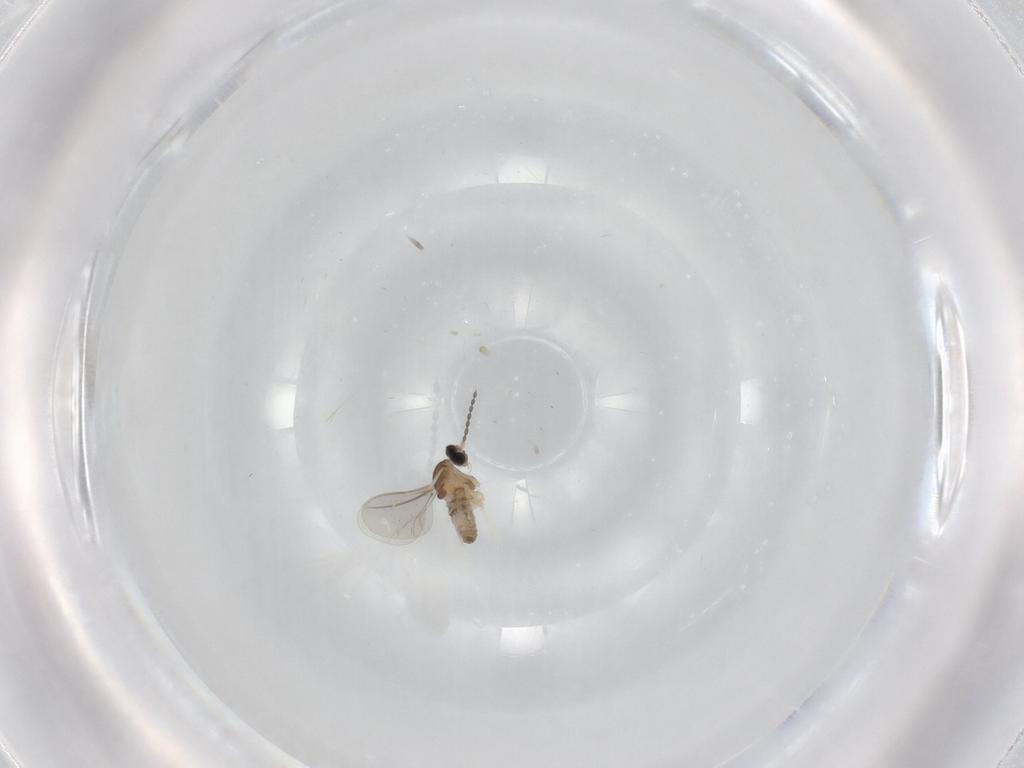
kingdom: Animalia
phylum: Arthropoda
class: Insecta
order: Diptera
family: Cecidomyiidae
